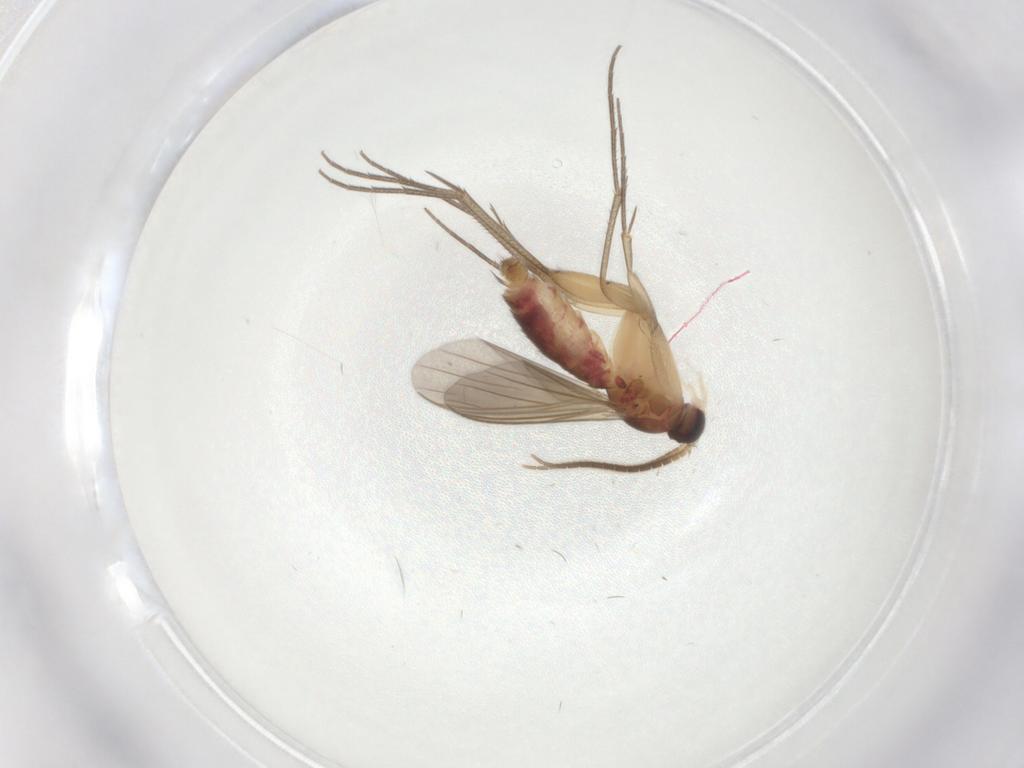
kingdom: Animalia
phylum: Arthropoda
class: Insecta
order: Diptera
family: Mycetophilidae
